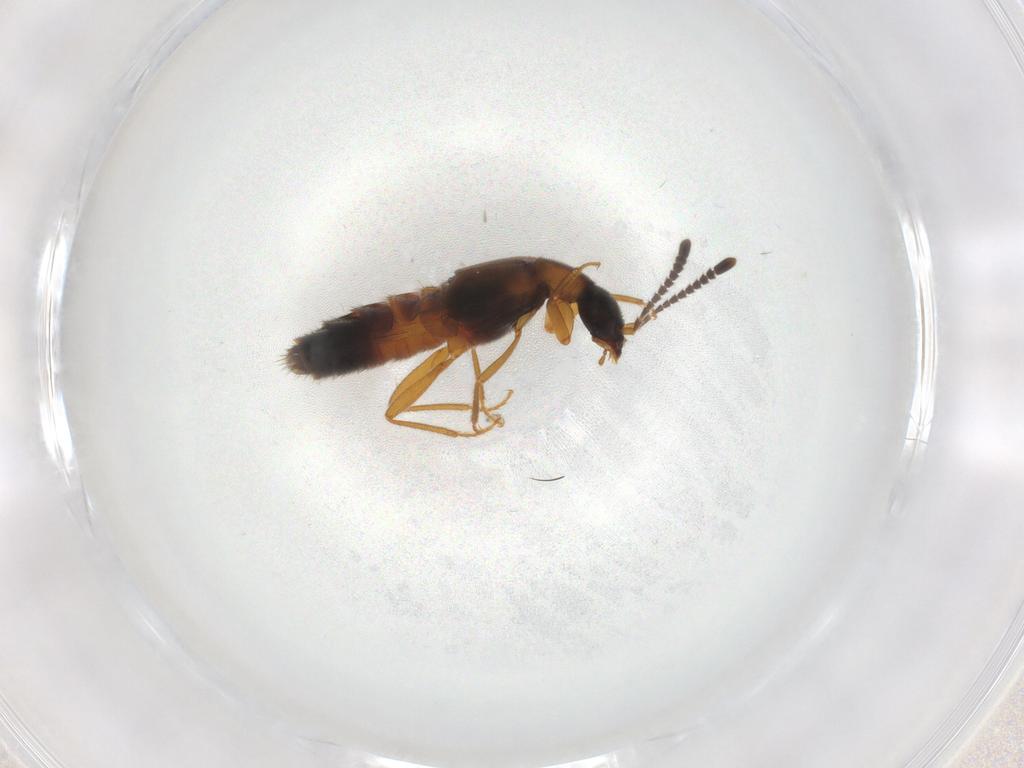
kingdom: Animalia
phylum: Arthropoda
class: Insecta
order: Coleoptera
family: Staphylinidae
